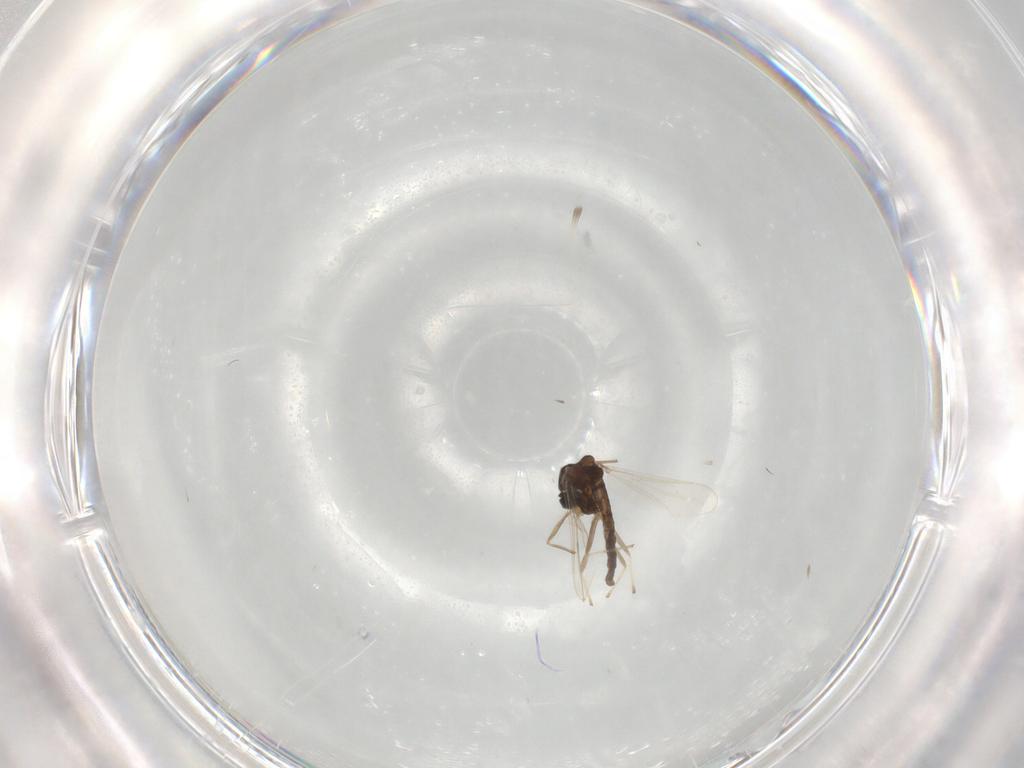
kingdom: Animalia
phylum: Arthropoda
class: Insecta
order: Diptera
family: Chironomidae
